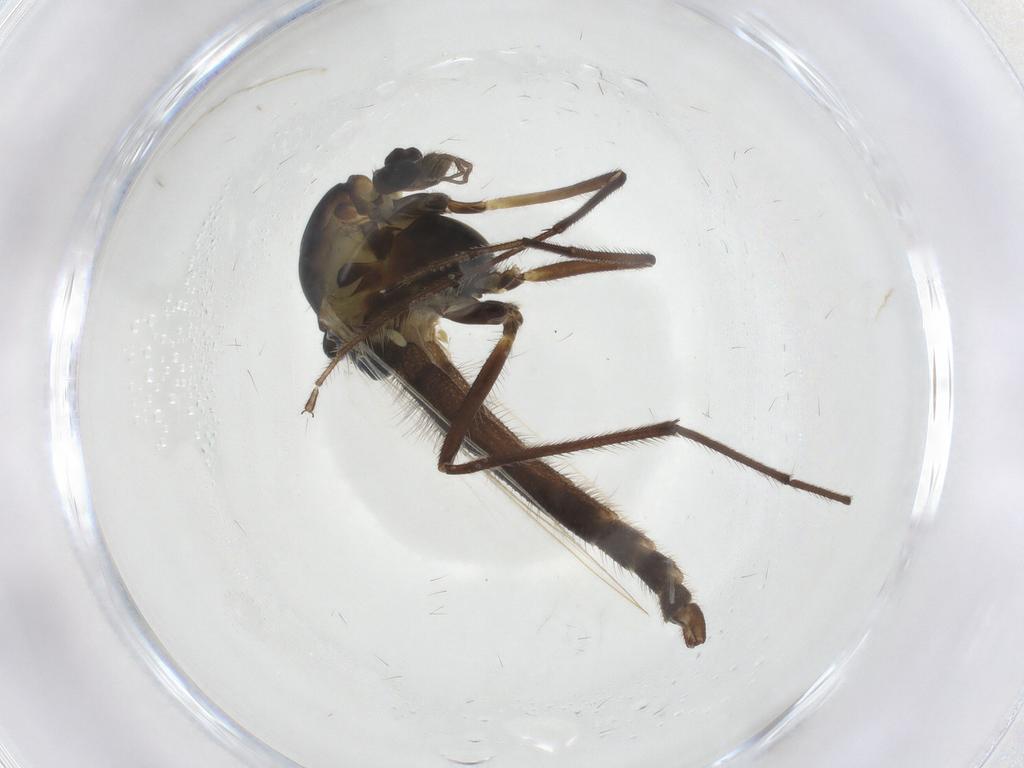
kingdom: Animalia
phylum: Arthropoda
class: Insecta
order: Diptera
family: Chironomidae
